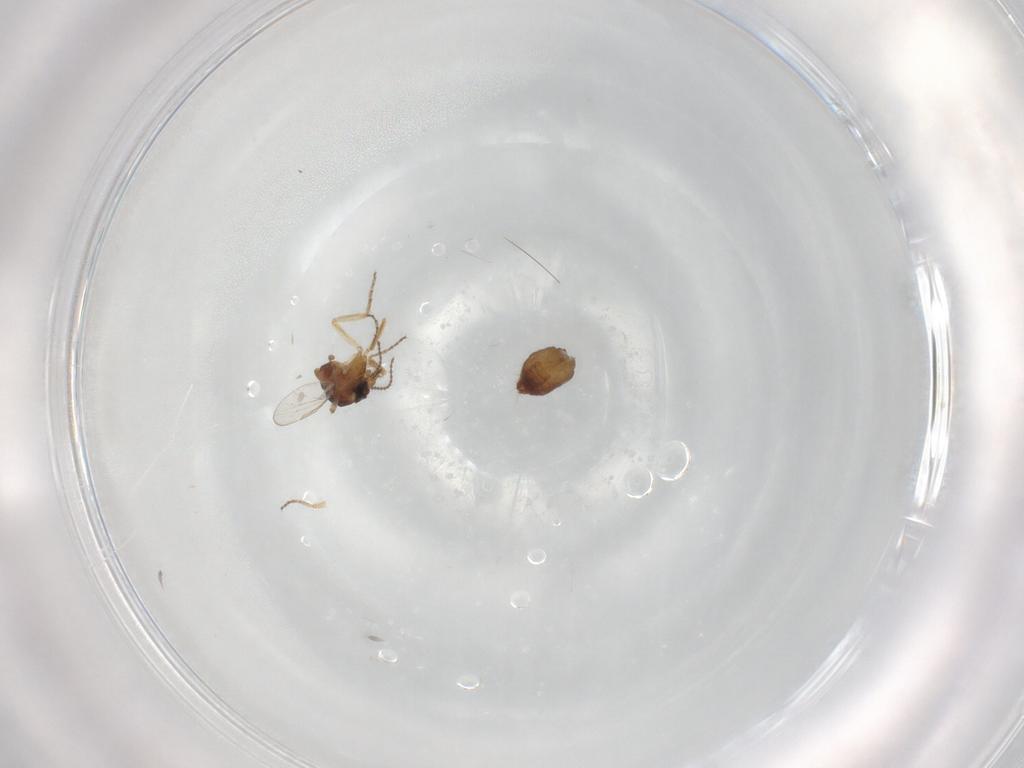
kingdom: Animalia
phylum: Arthropoda
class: Insecta
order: Diptera
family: Ceratopogonidae
